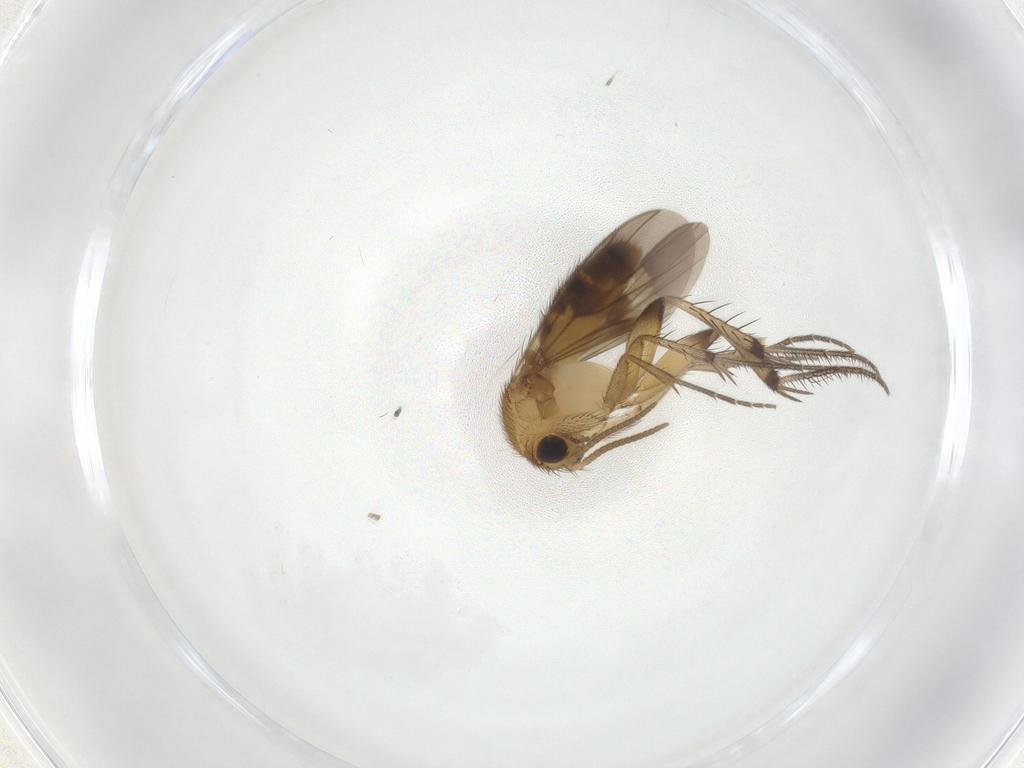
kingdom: Animalia
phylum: Arthropoda
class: Insecta
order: Diptera
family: Mycetophilidae
